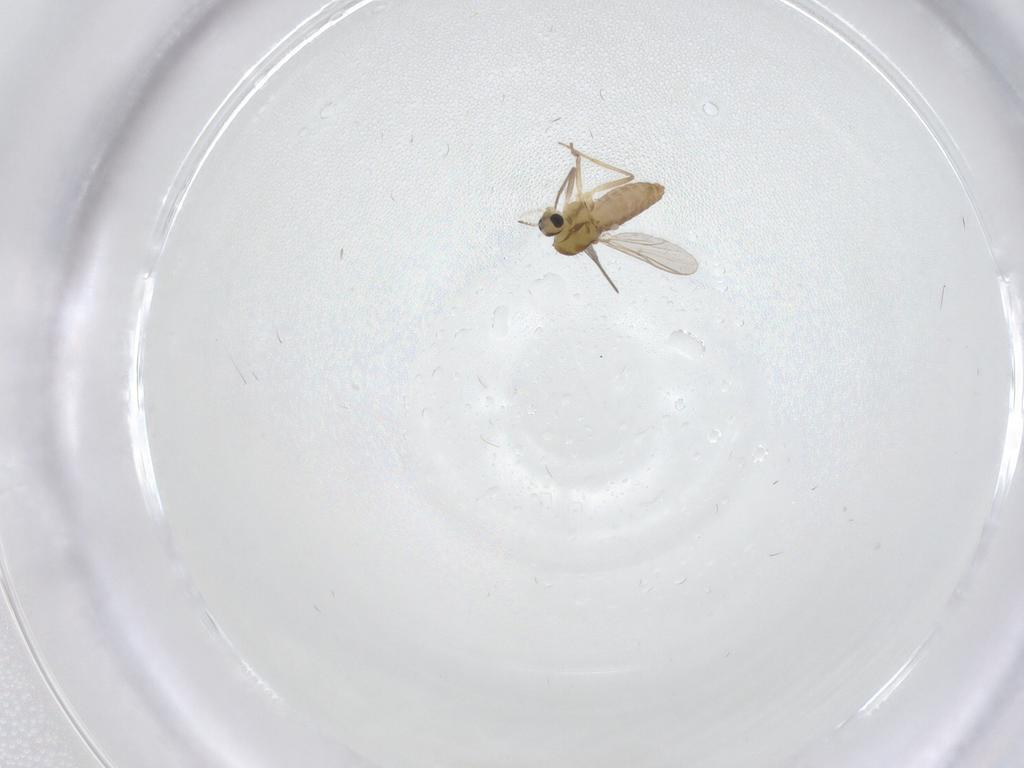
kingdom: Animalia
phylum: Arthropoda
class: Insecta
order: Diptera
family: Chironomidae
